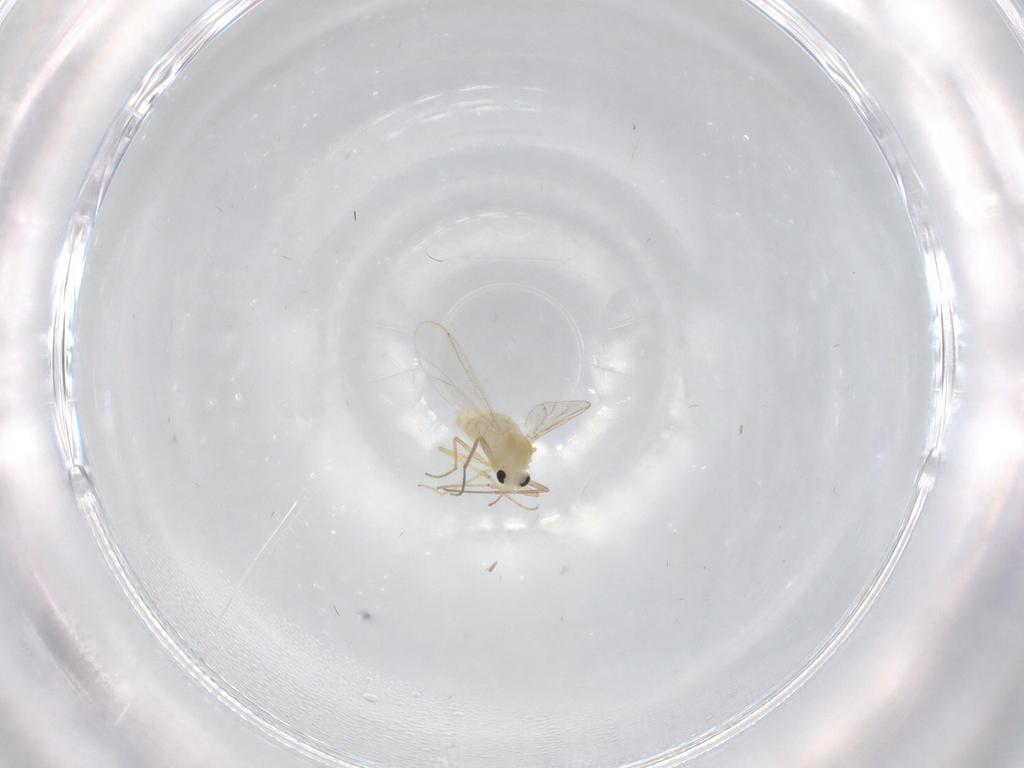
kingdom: Animalia
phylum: Arthropoda
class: Insecta
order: Diptera
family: Chironomidae
